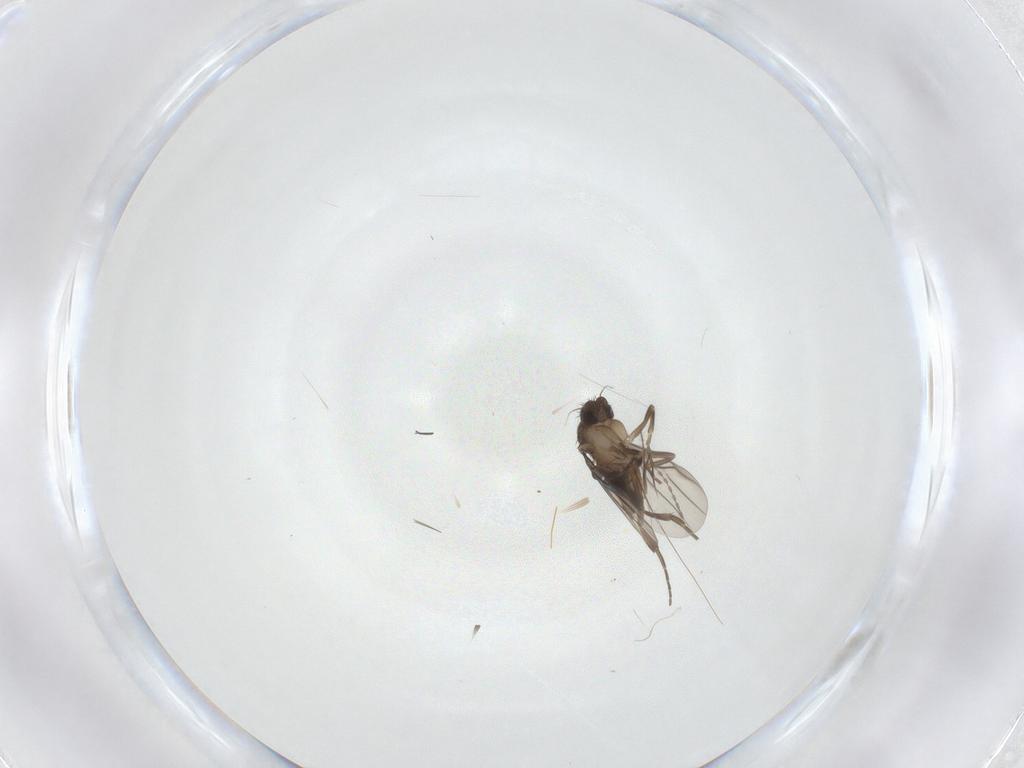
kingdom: Animalia
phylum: Arthropoda
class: Insecta
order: Diptera
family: Ceratopogonidae
